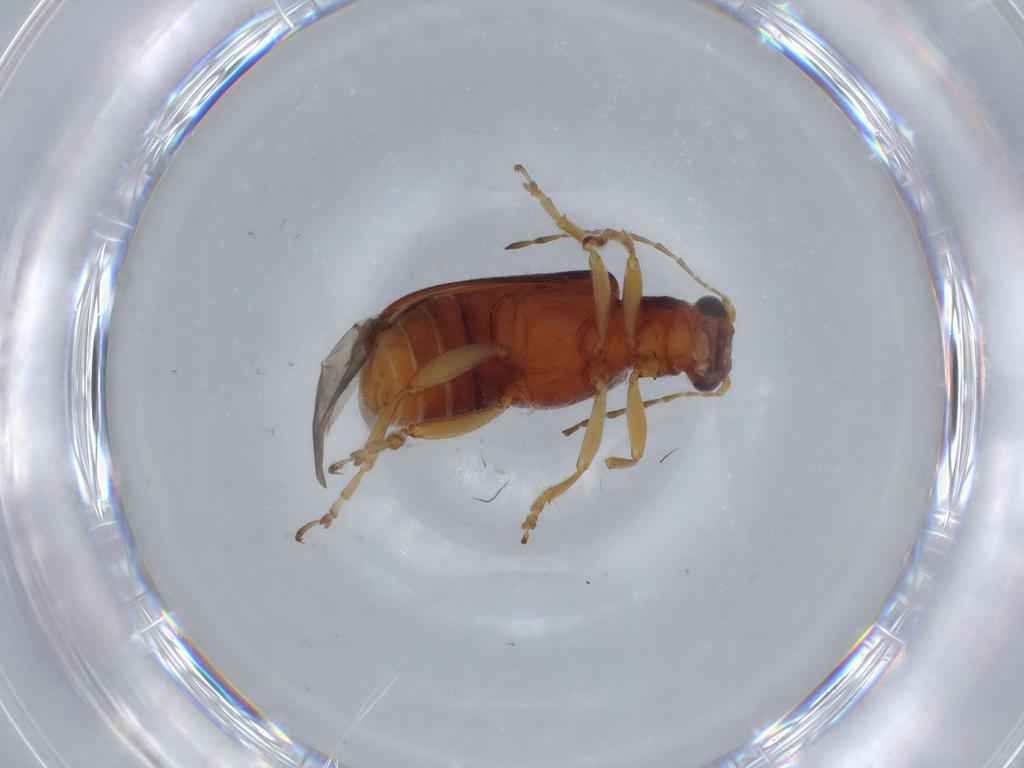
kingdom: Animalia
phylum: Arthropoda
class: Insecta
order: Coleoptera
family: Chrysomelidae
